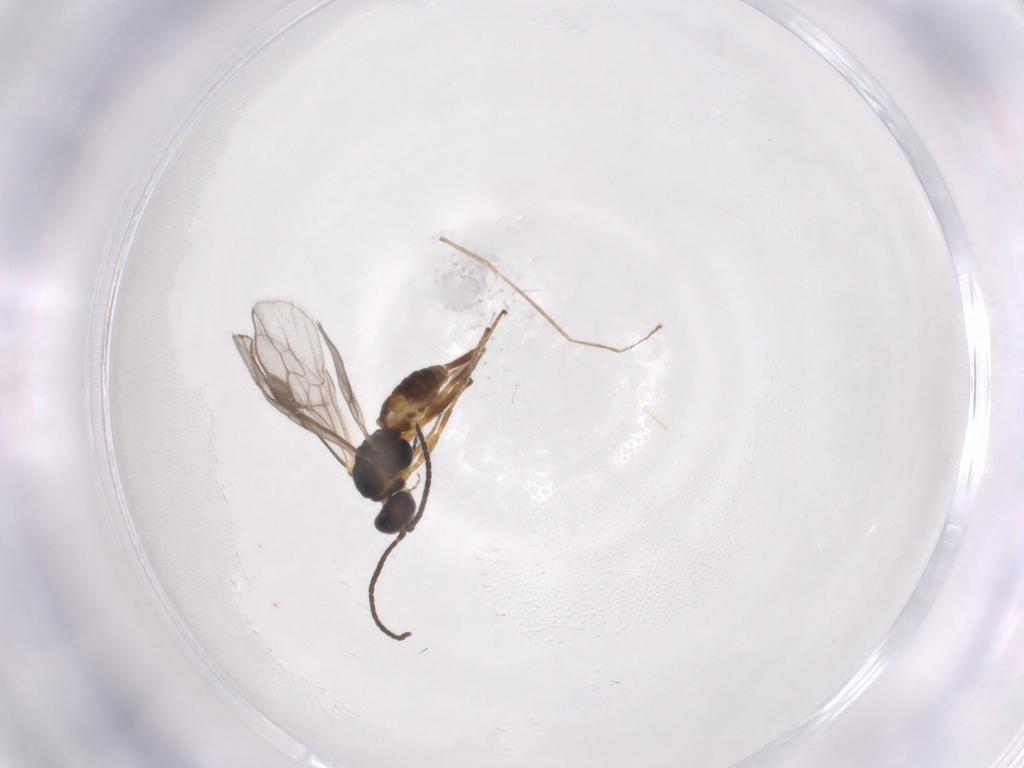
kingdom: Animalia
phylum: Arthropoda
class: Insecta
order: Hymenoptera
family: Braconidae
